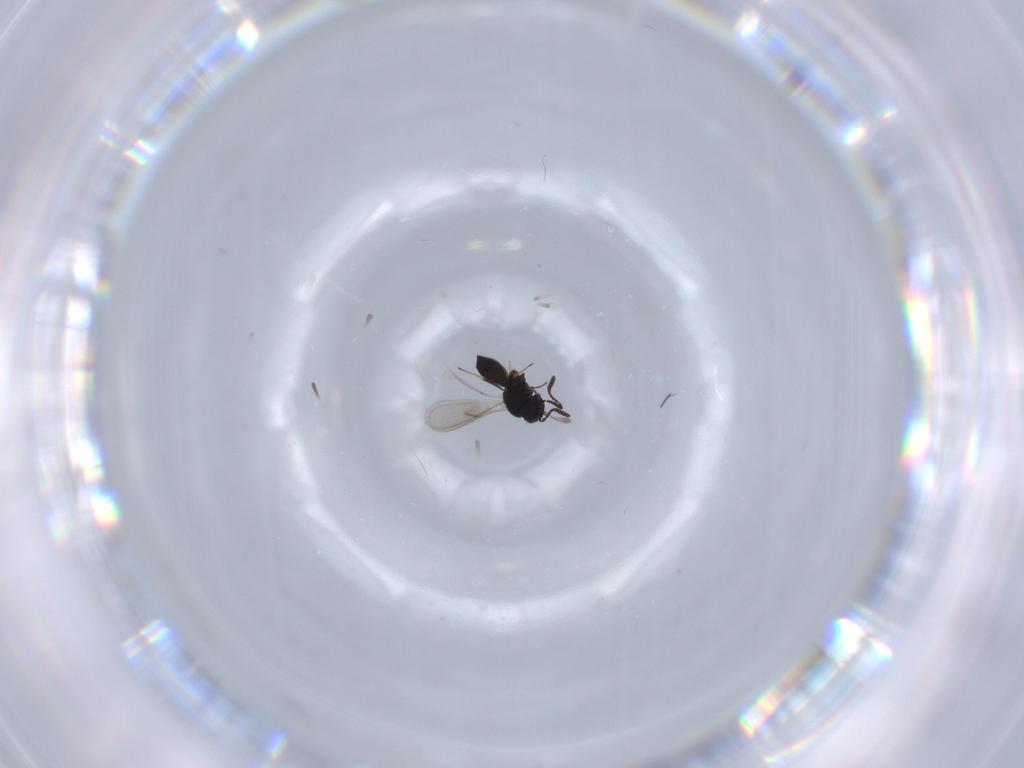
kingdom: Animalia
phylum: Arthropoda
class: Insecta
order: Hymenoptera
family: Scelionidae
